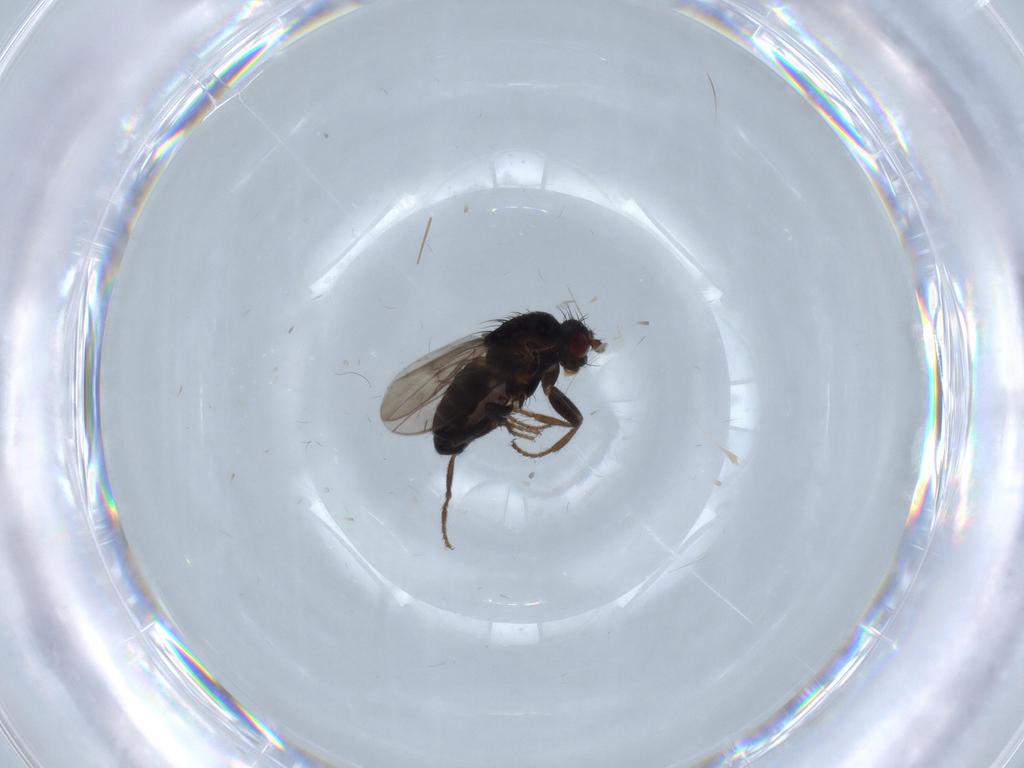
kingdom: Animalia
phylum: Arthropoda
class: Insecta
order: Diptera
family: Sphaeroceridae
